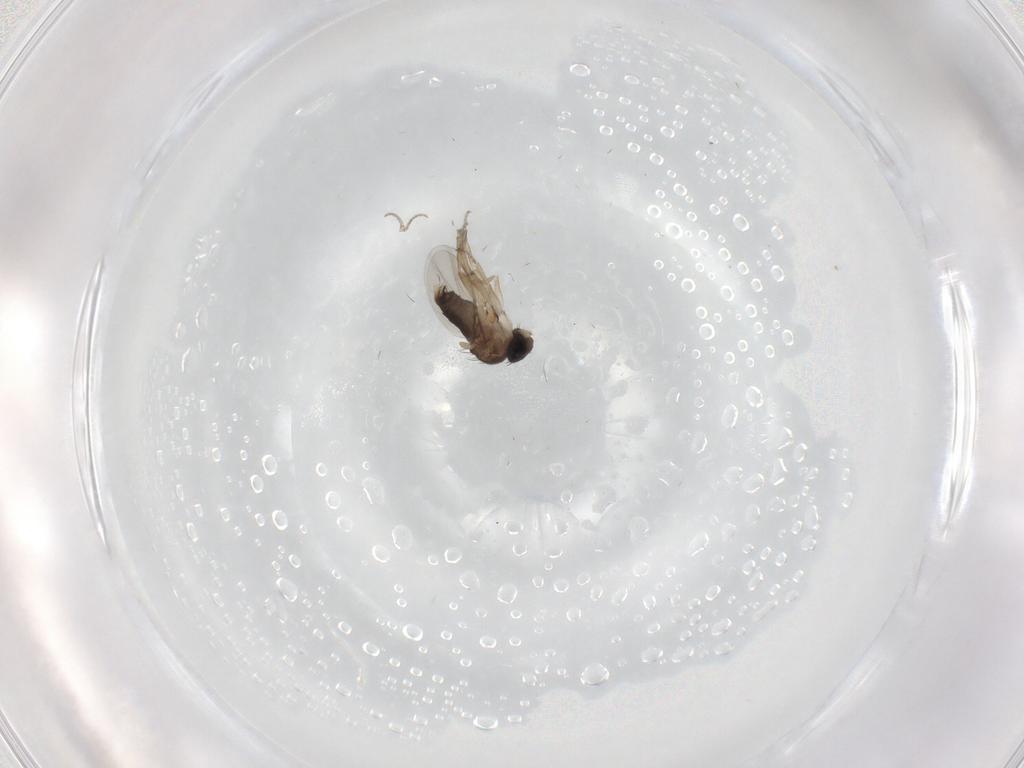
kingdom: Animalia
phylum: Arthropoda
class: Insecta
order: Diptera
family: Phoridae
